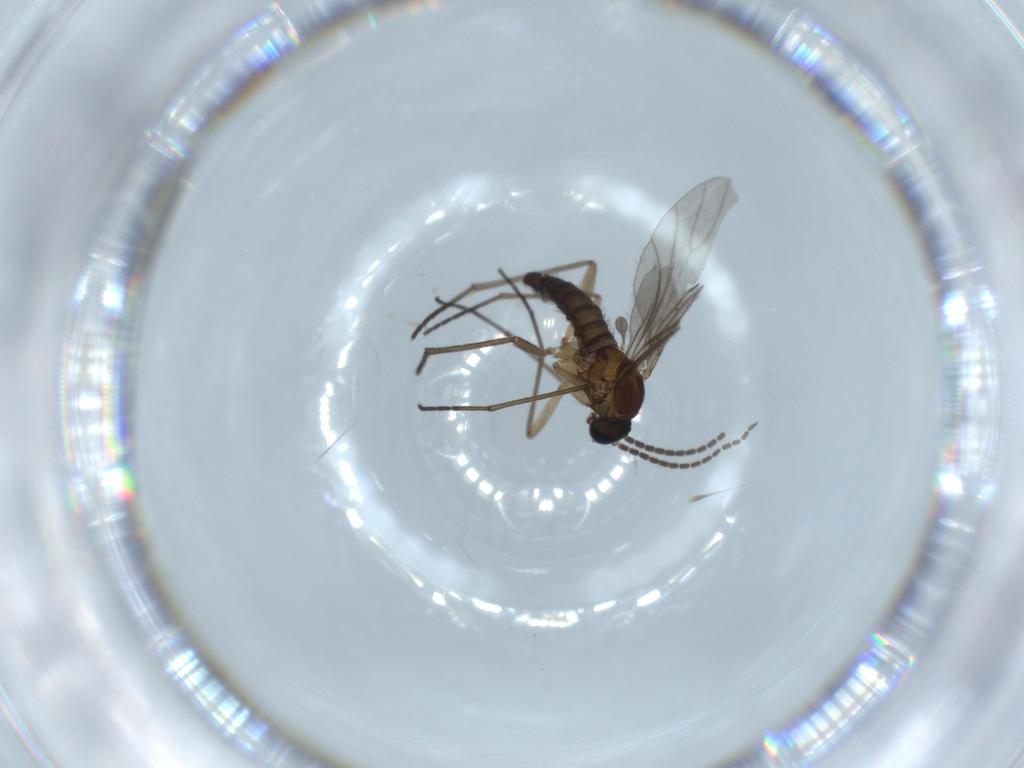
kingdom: Animalia
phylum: Arthropoda
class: Insecta
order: Diptera
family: Sciaridae
